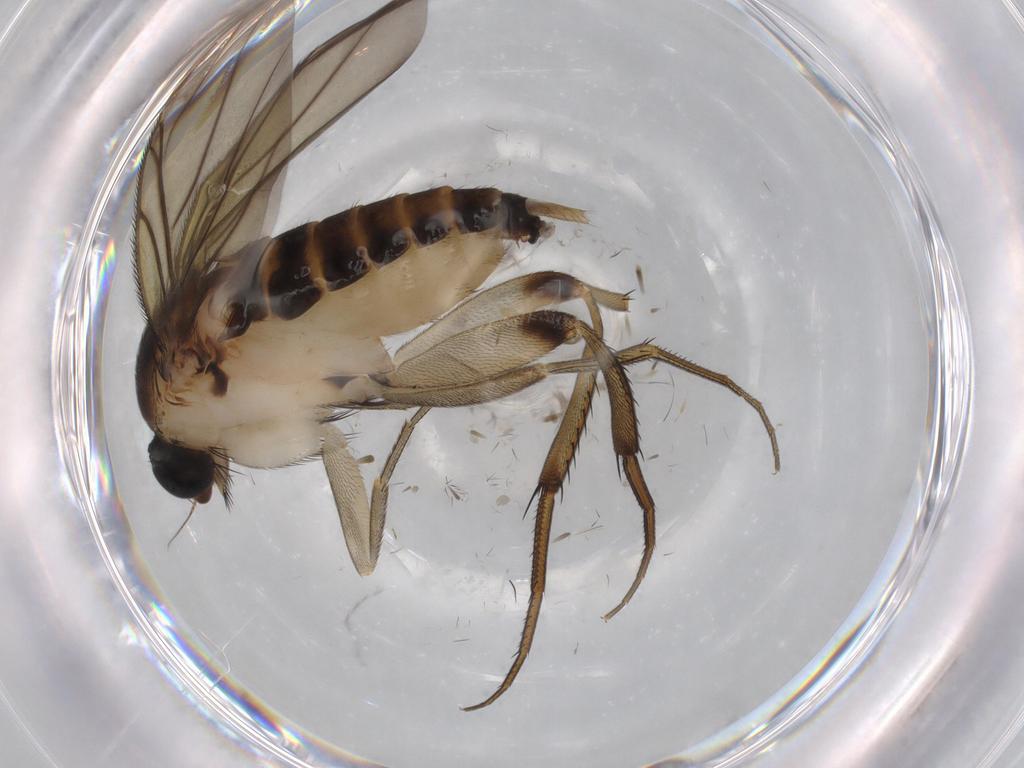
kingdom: Animalia
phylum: Arthropoda
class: Insecta
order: Diptera
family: Phoridae
